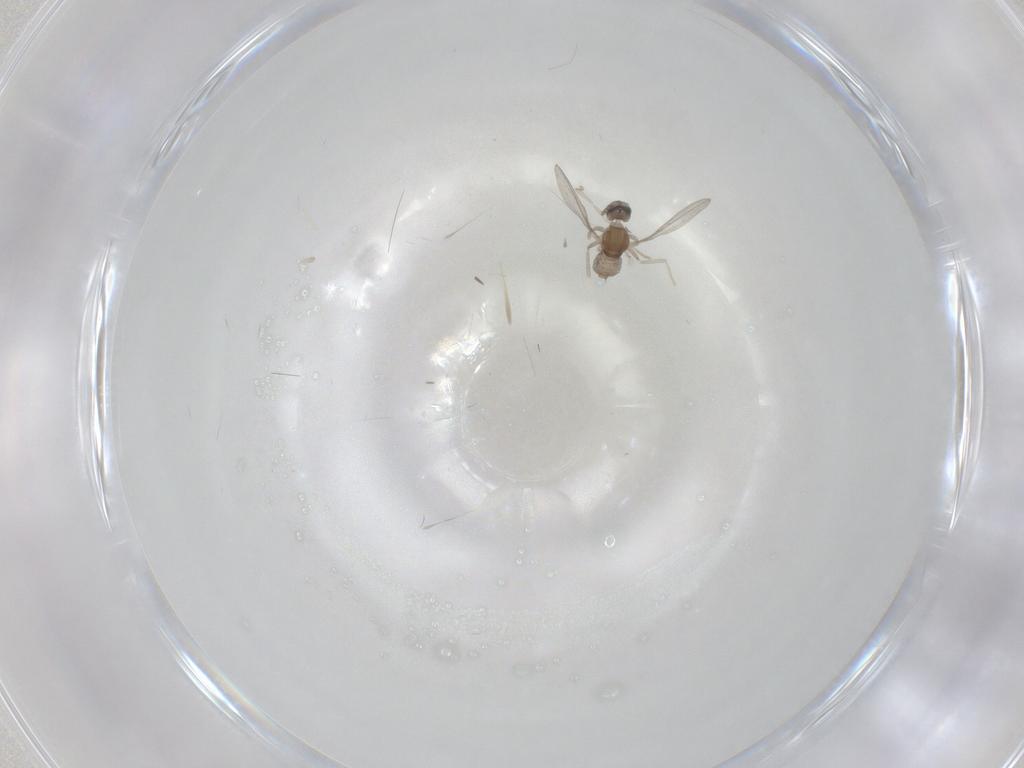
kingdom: Animalia
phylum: Arthropoda
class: Insecta
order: Diptera
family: Cecidomyiidae
